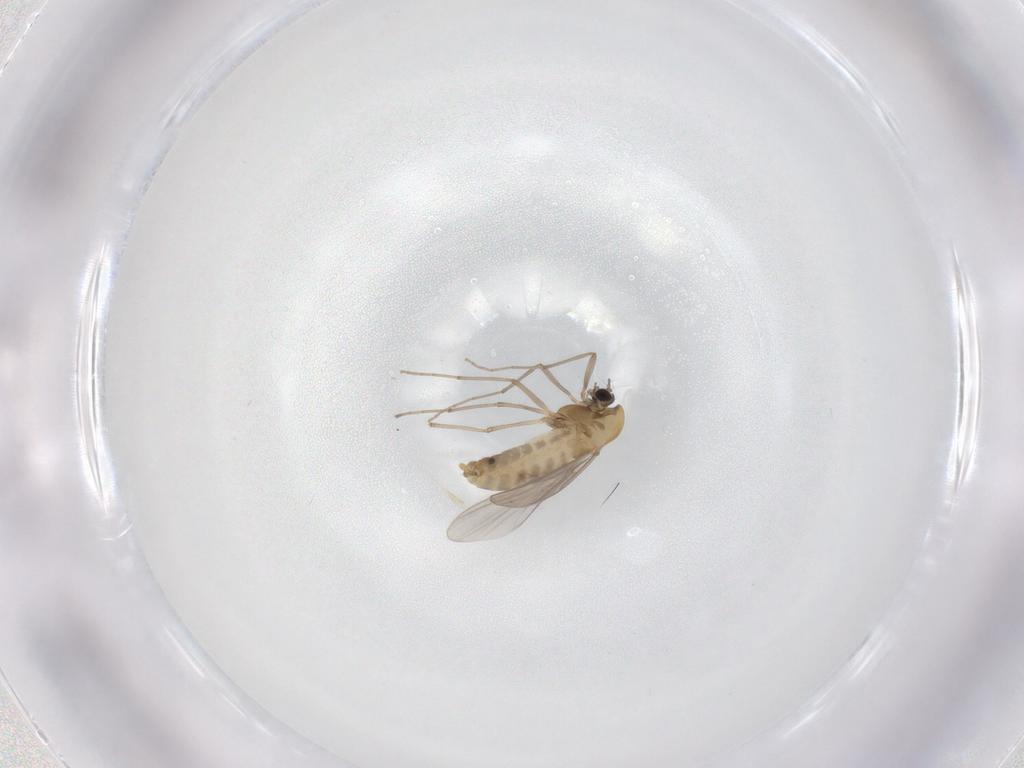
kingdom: Animalia
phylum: Arthropoda
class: Insecta
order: Diptera
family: Chironomidae
